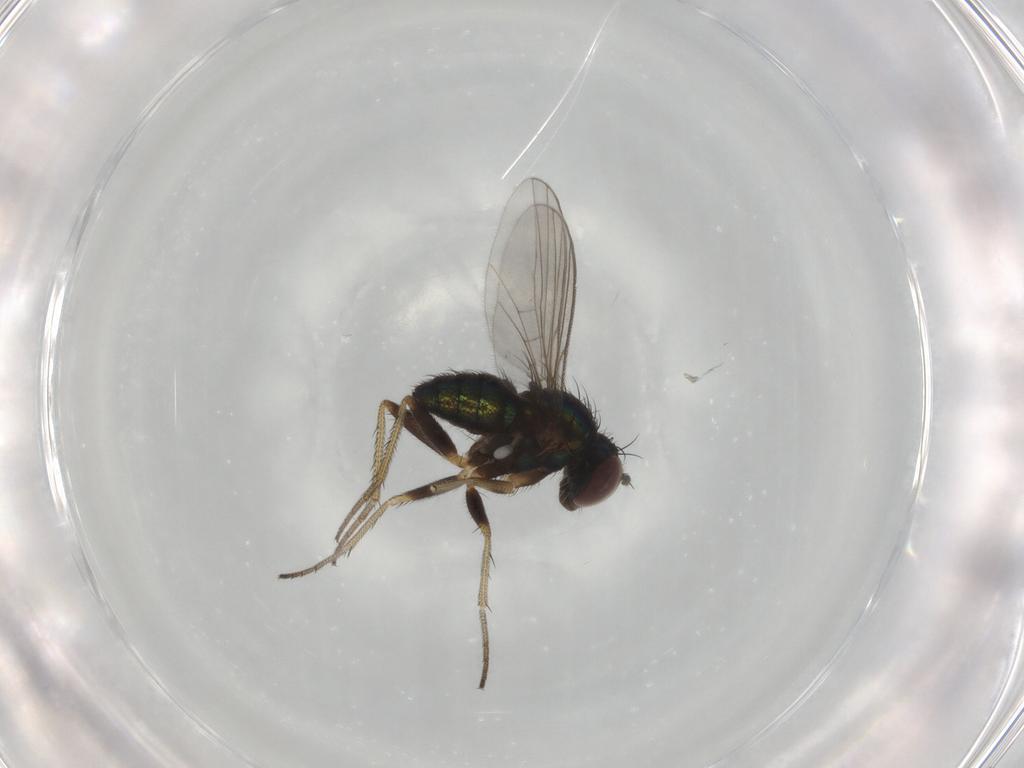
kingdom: Animalia
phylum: Arthropoda
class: Insecta
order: Diptera
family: Dolichopodidae
